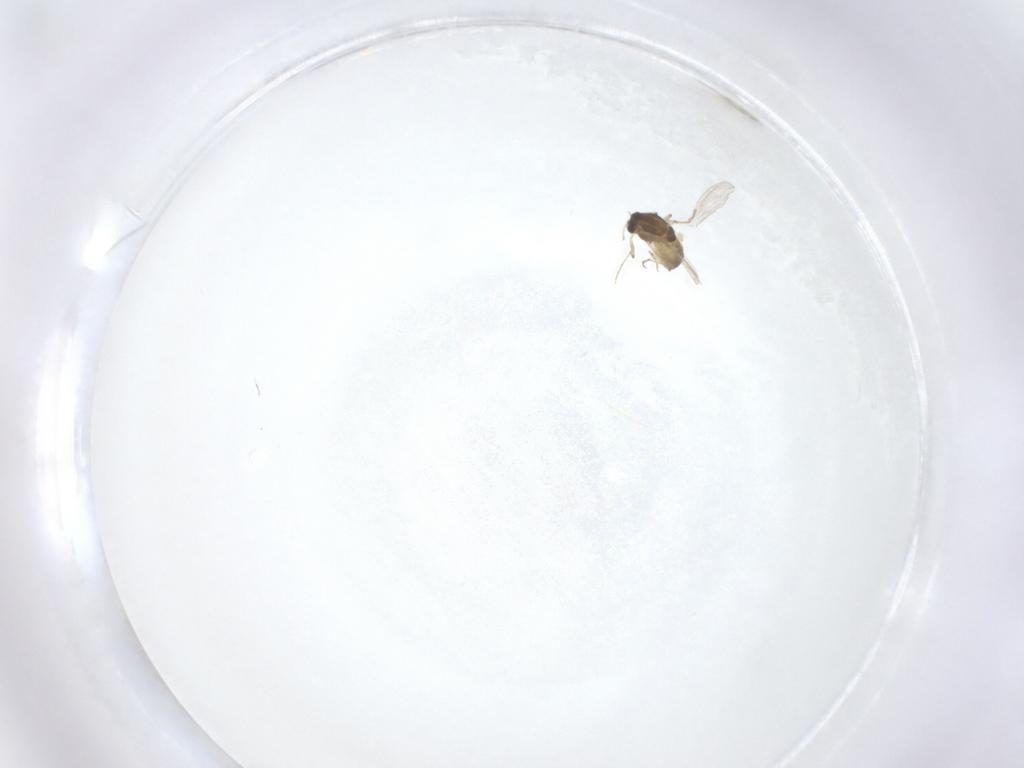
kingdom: Animalia
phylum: Arthropoda
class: Insecta
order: Diptera
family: Chironomidae
